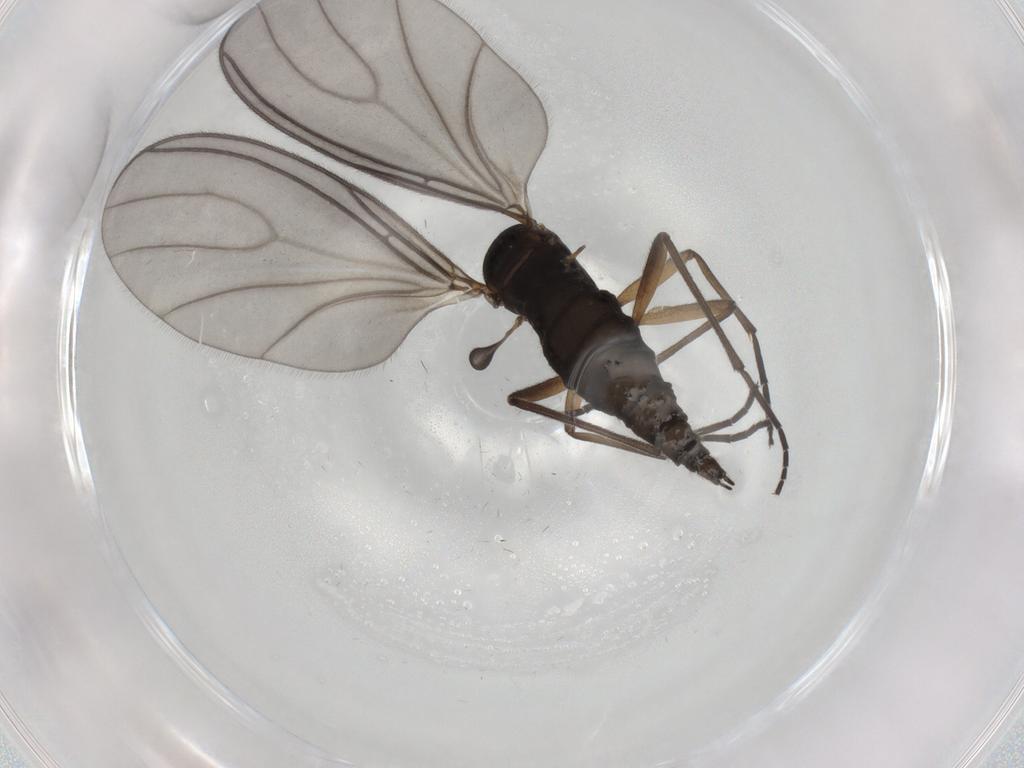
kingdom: Animalia
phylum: Arthropoda
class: Insecta
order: Diptera
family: Sciaridae
